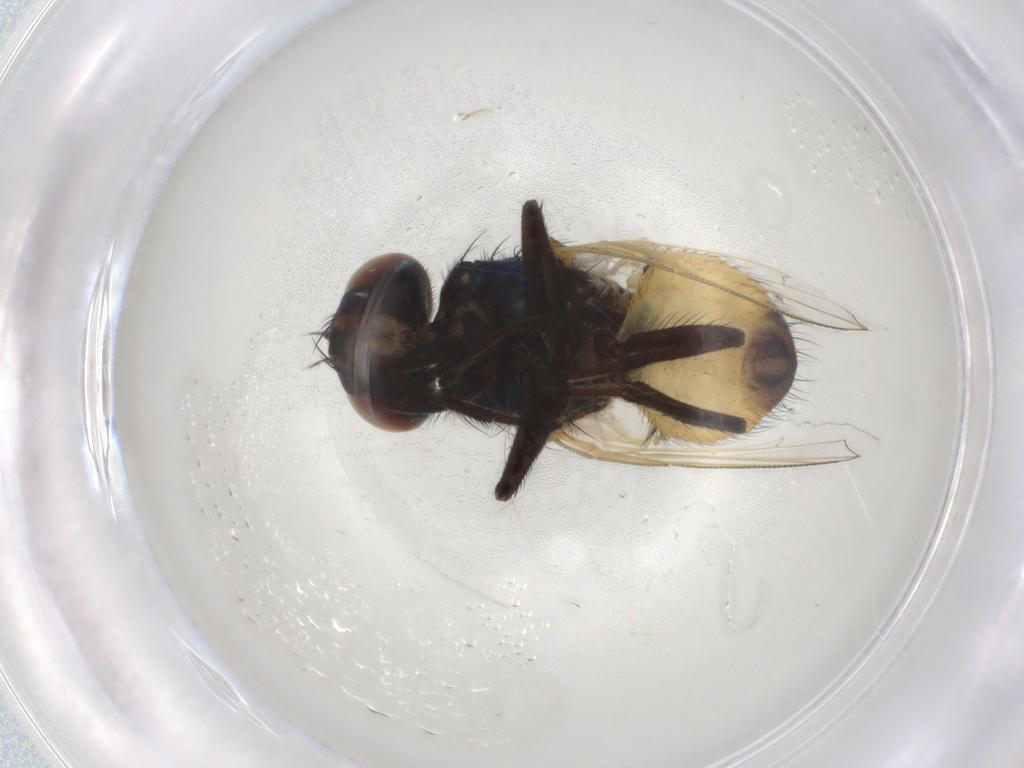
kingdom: Animalia
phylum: Arthropoda
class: Insecta
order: Diptera
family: Muscidae
